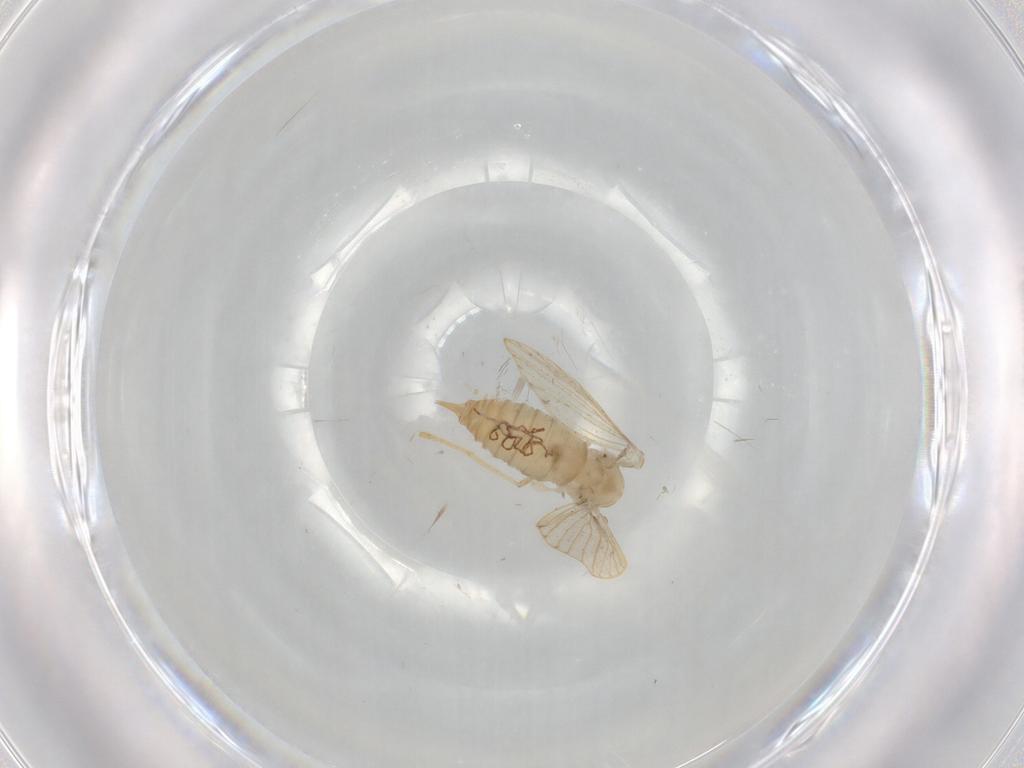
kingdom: Animalia
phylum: Arthropoda
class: Insecta
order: Diptera
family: Psychodidae
